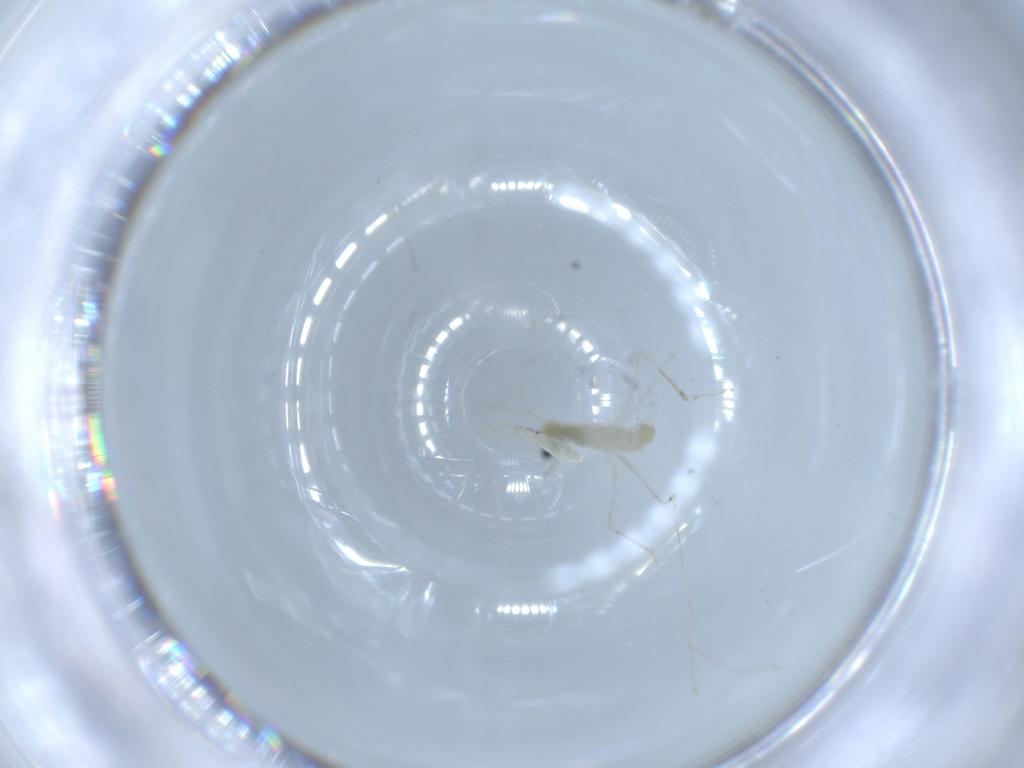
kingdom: Animalia
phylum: Arthropoda
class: Insecta
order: Diptera
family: Cecidomyiidae
